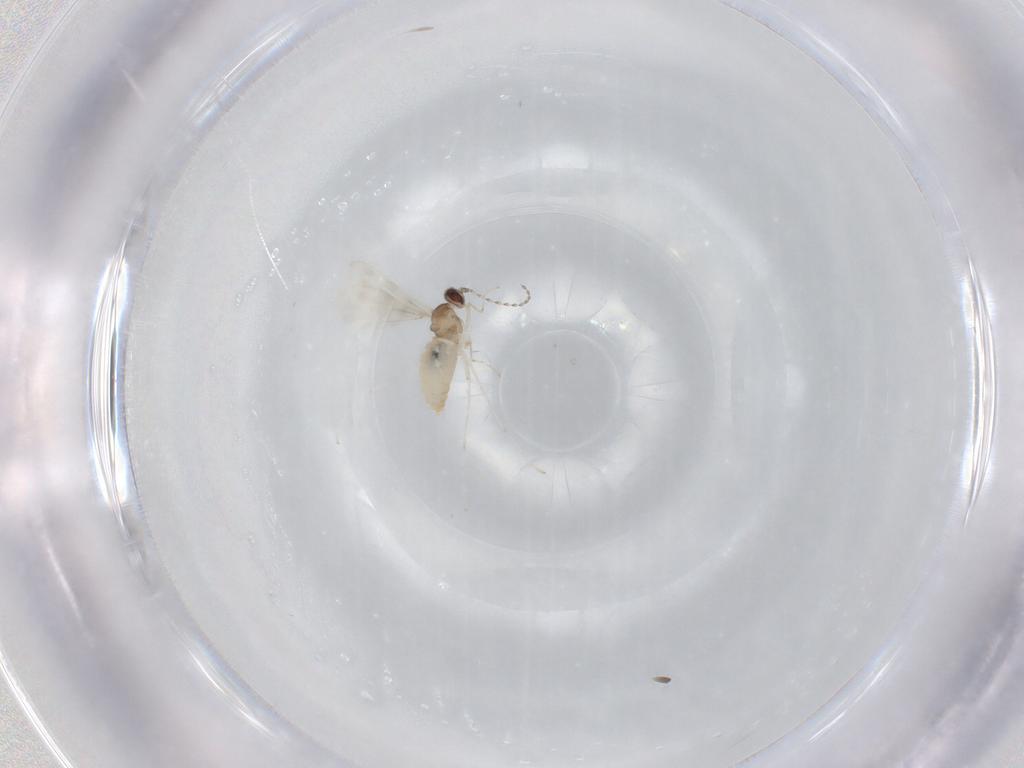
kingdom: Animalia
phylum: Arthropoda
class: Insecta
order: Diptera
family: Cecidomyiidae
